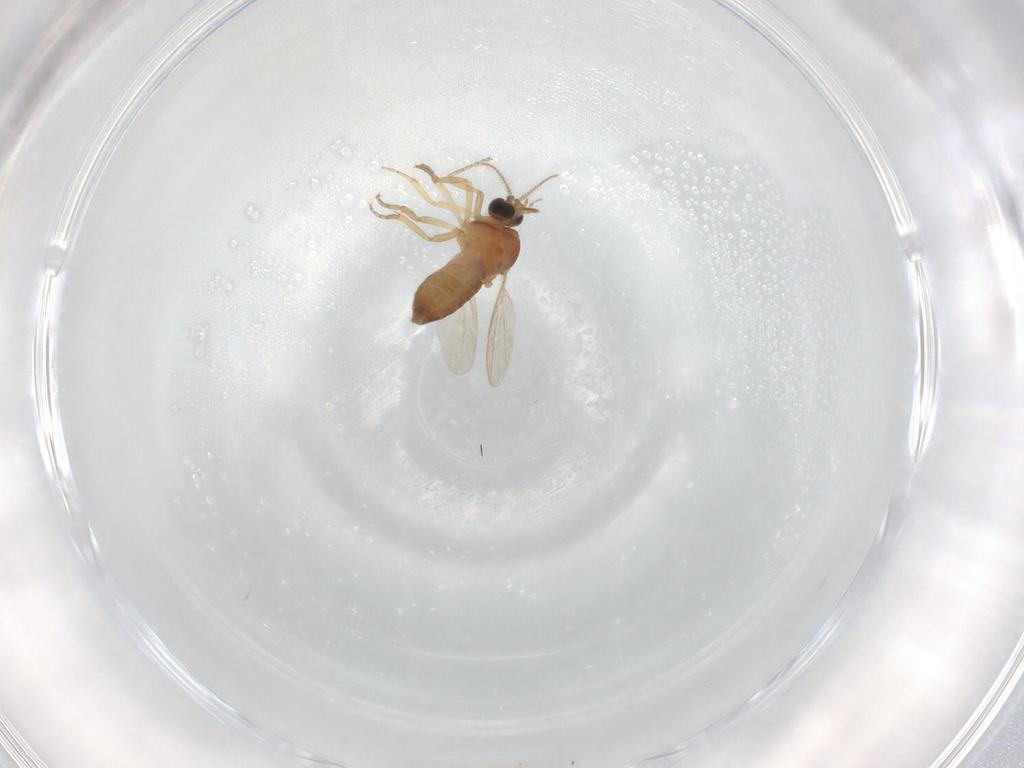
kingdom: Animalia
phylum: Arthropoda
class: Insecta
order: Diptera
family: Ceratopogonidae
